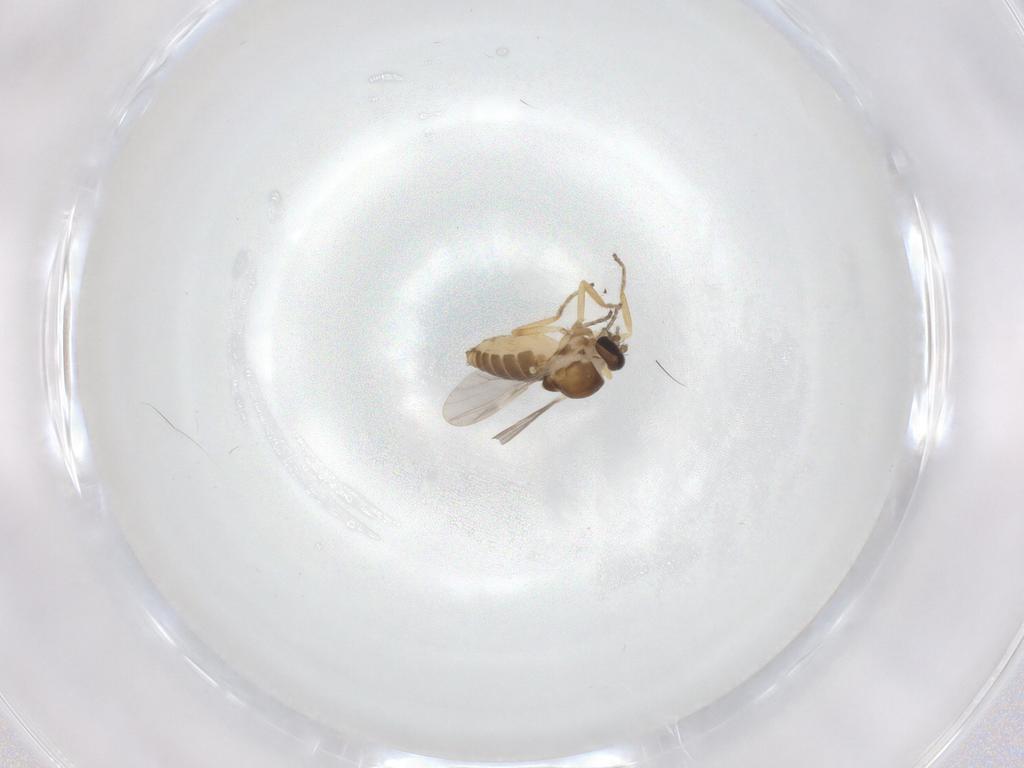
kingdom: Animalia
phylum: Arthropoda
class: Insecta
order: Diptera
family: Ceratopogonidae
